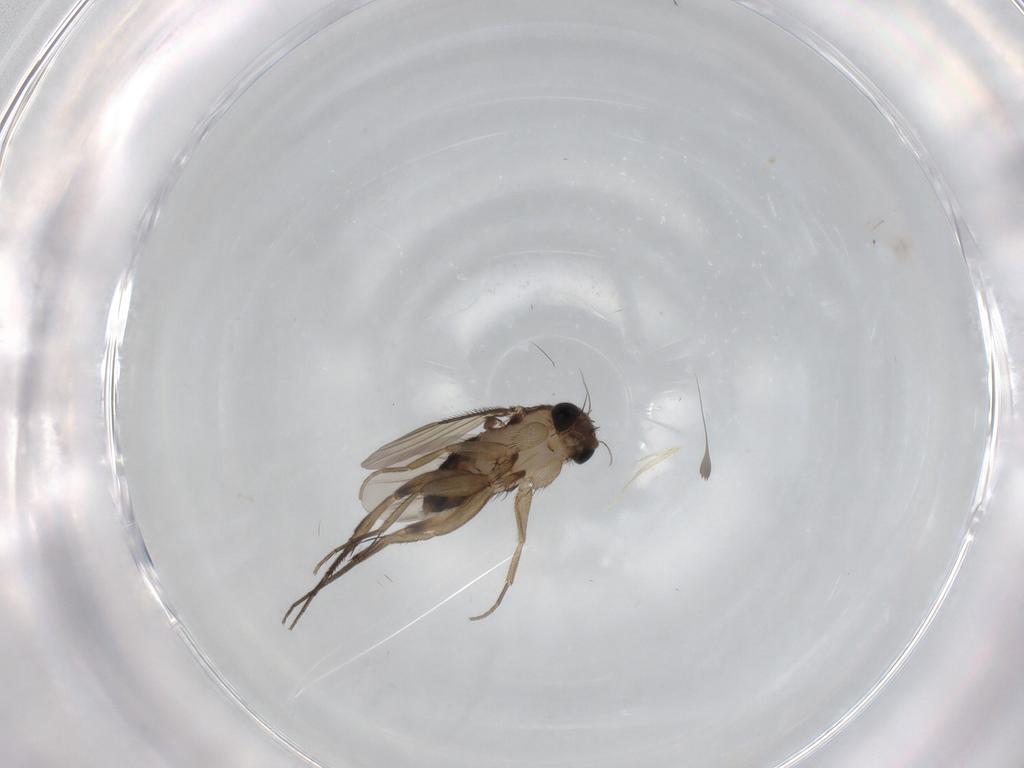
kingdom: Animalia
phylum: Arthropoda
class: Insecta
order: Diptera
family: Phoridae
